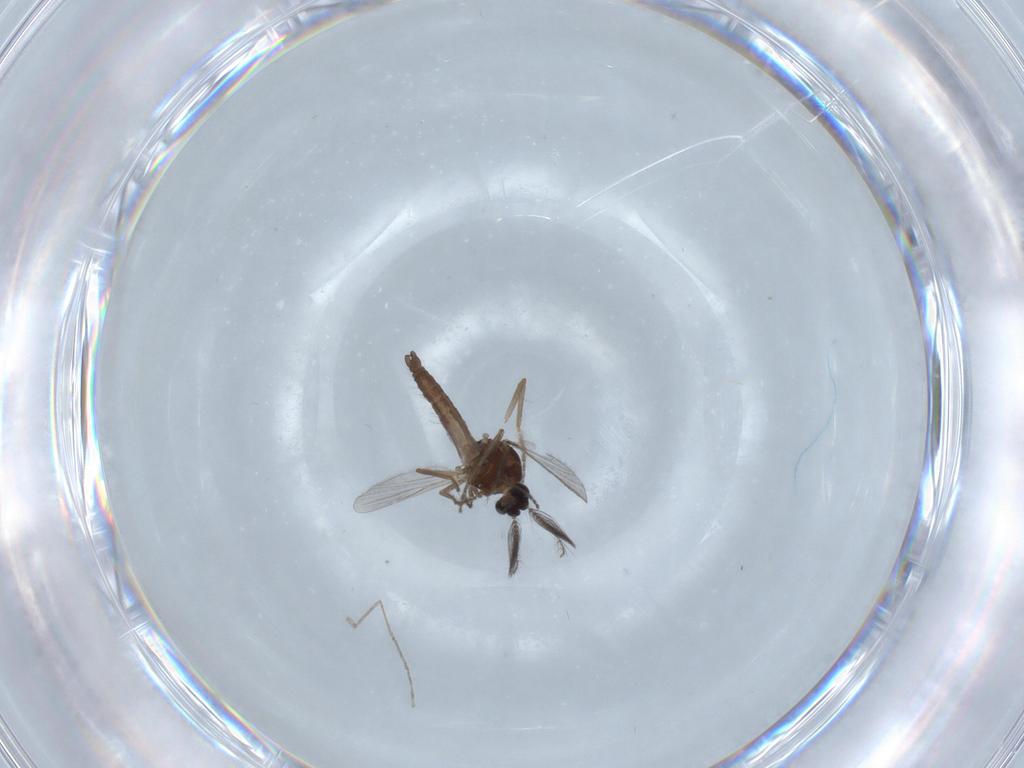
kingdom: Animalia
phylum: Arthropoda
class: Insecta
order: Diptera
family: Ceratopogonidae
